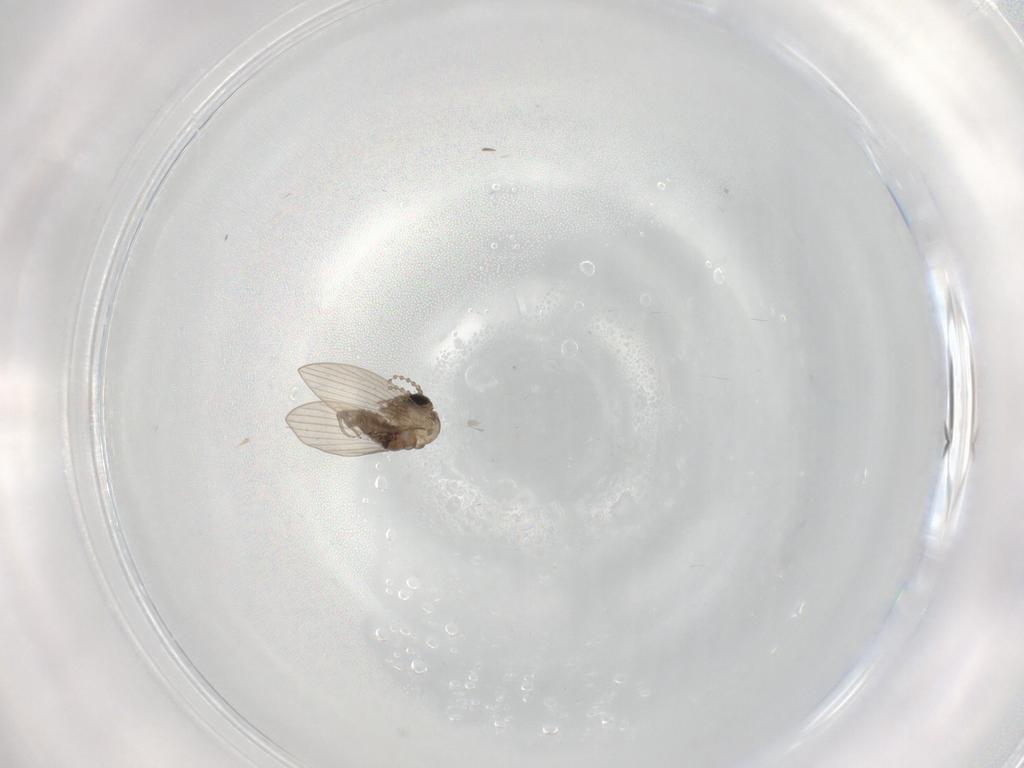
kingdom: Animalia
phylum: Arthropoda
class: Insecta
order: Diptera
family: Psychodidae
